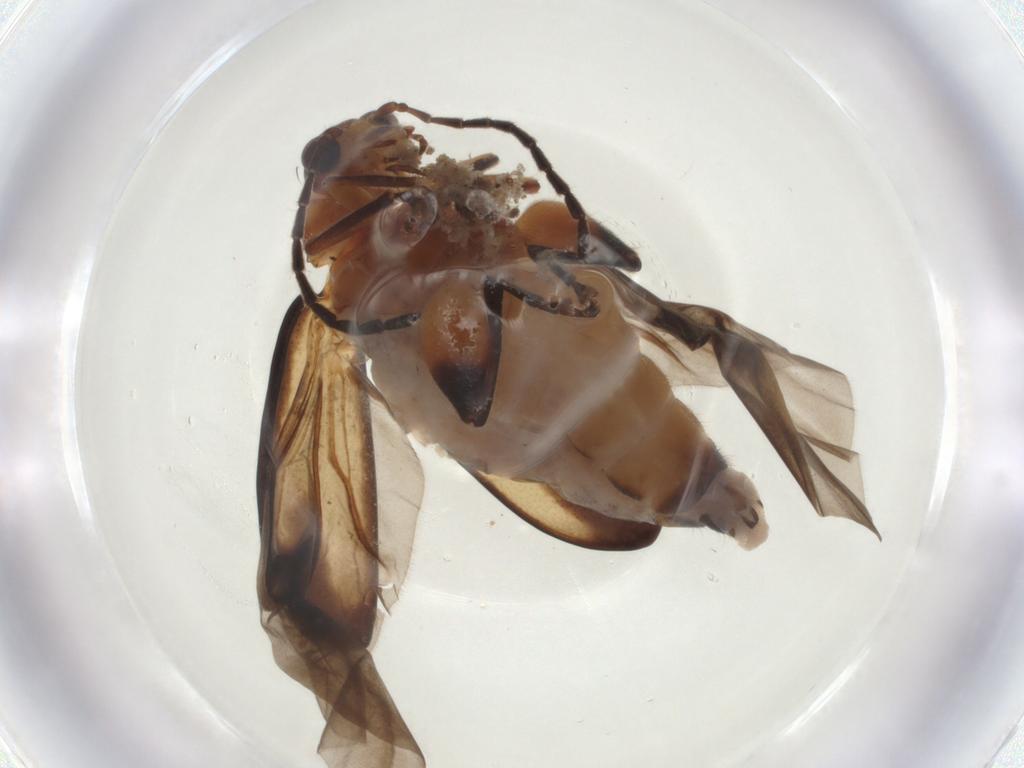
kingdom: Animalia
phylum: Arthropoda
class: Insecta
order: Coleoptera
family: Chrysomelidae
